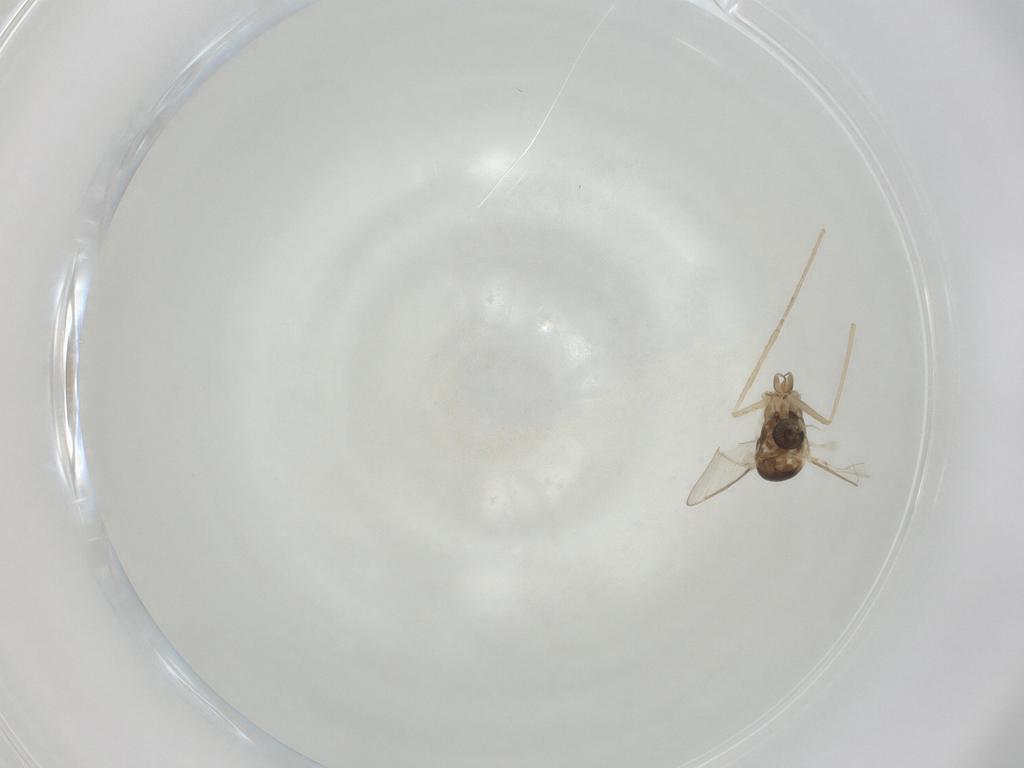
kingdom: Animalia
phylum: Arthropoda
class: Insecta
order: Diptera
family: Cecidomyiidae
